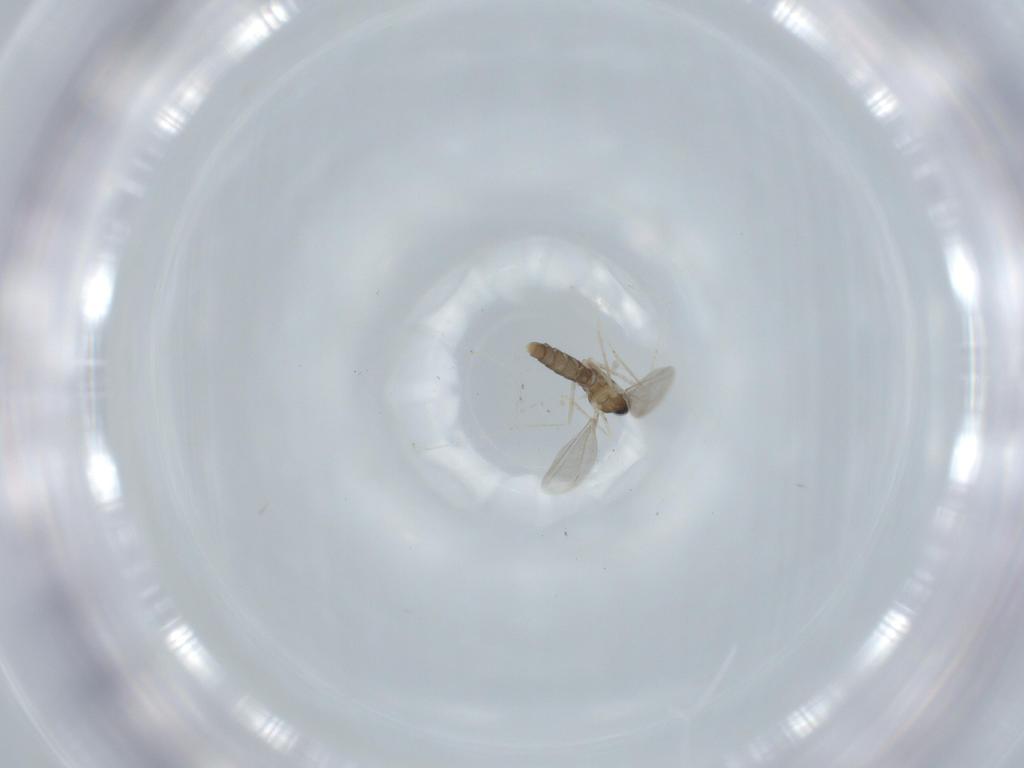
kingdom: Animalia
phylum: Arthropoda
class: Insecta
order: Diptera
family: Cecidomyiidae
